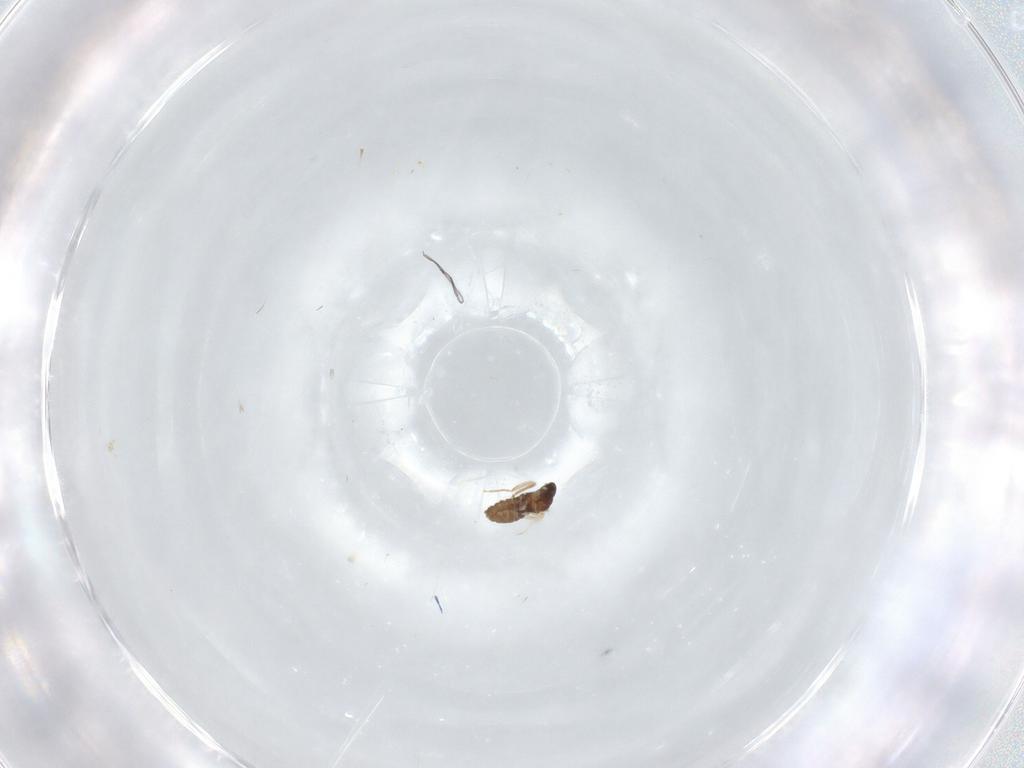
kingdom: Animalia
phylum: Arthropoda
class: Insecta
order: Diptera
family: Cecidomyiidae
